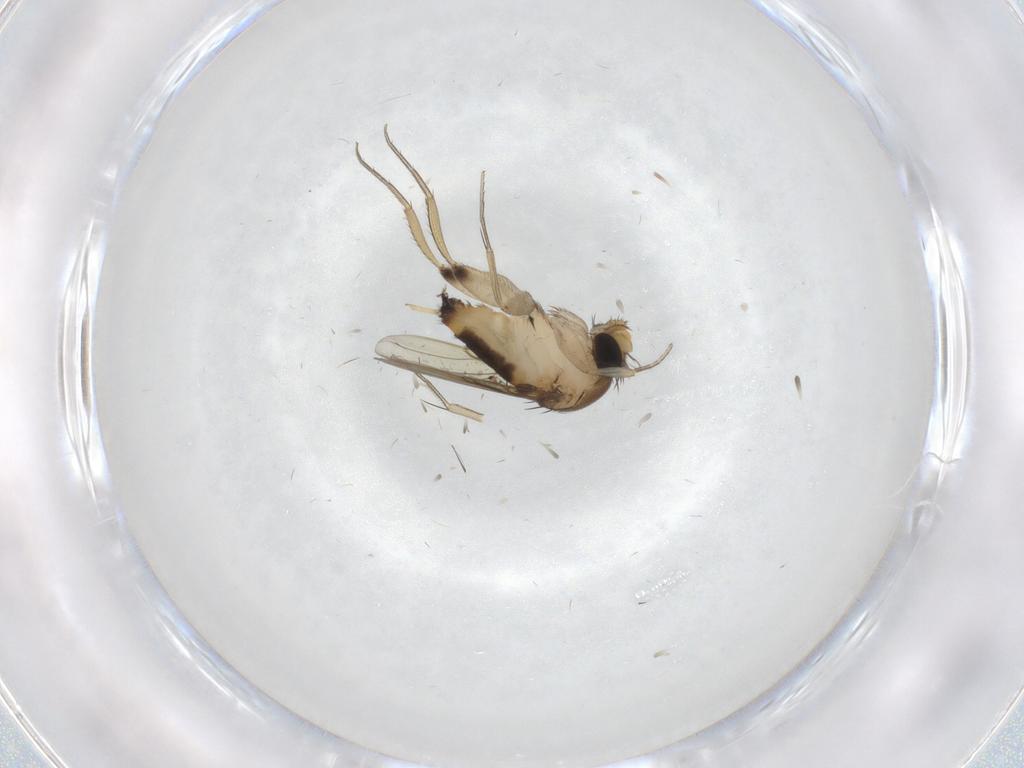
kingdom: Animalia
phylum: Arthropoda
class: Insecta
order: Diptera
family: Phoridae
